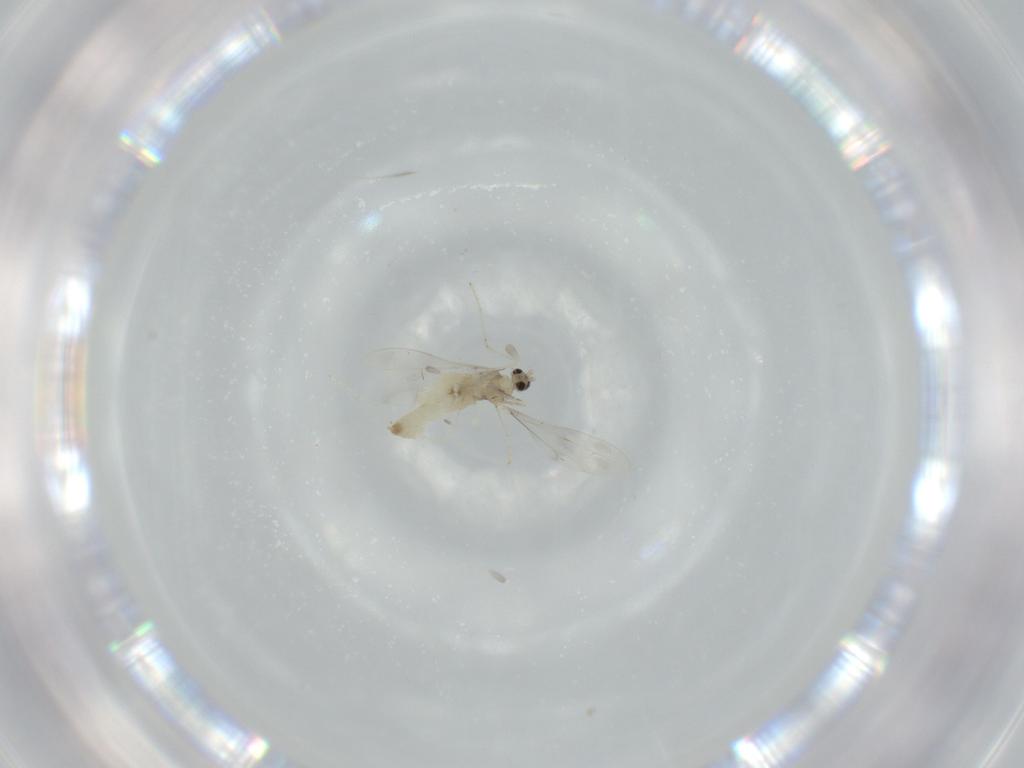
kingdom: Animalia
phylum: Arthropoda
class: Insecta
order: Diptera
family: Cecidomyiidae
